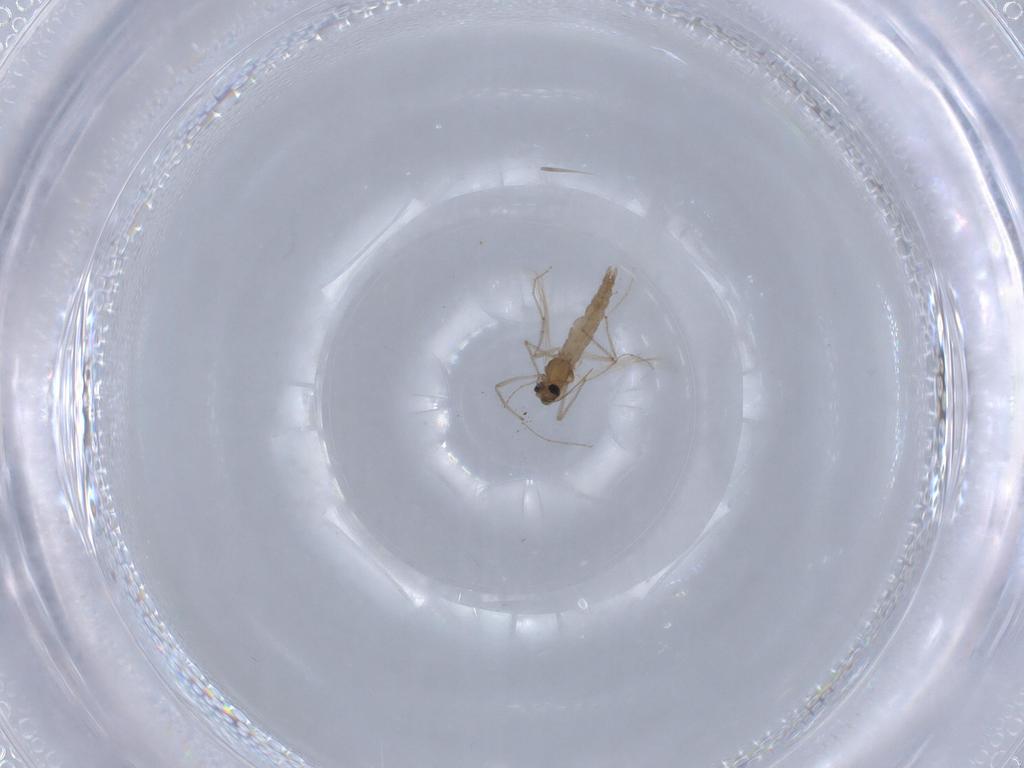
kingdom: Animalia
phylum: Arthropoda
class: Insecta
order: Diptera
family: Chironomidae
